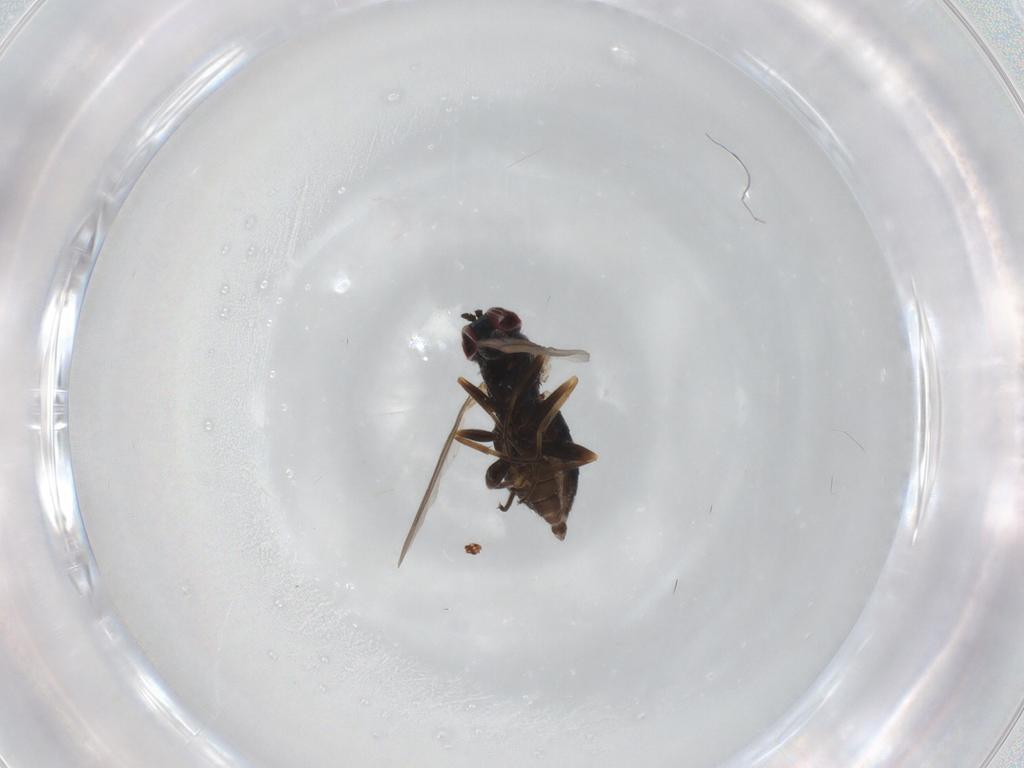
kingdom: Animalia
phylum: Arthropoda
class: Insecta
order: Diptera
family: Dolichopodidae
